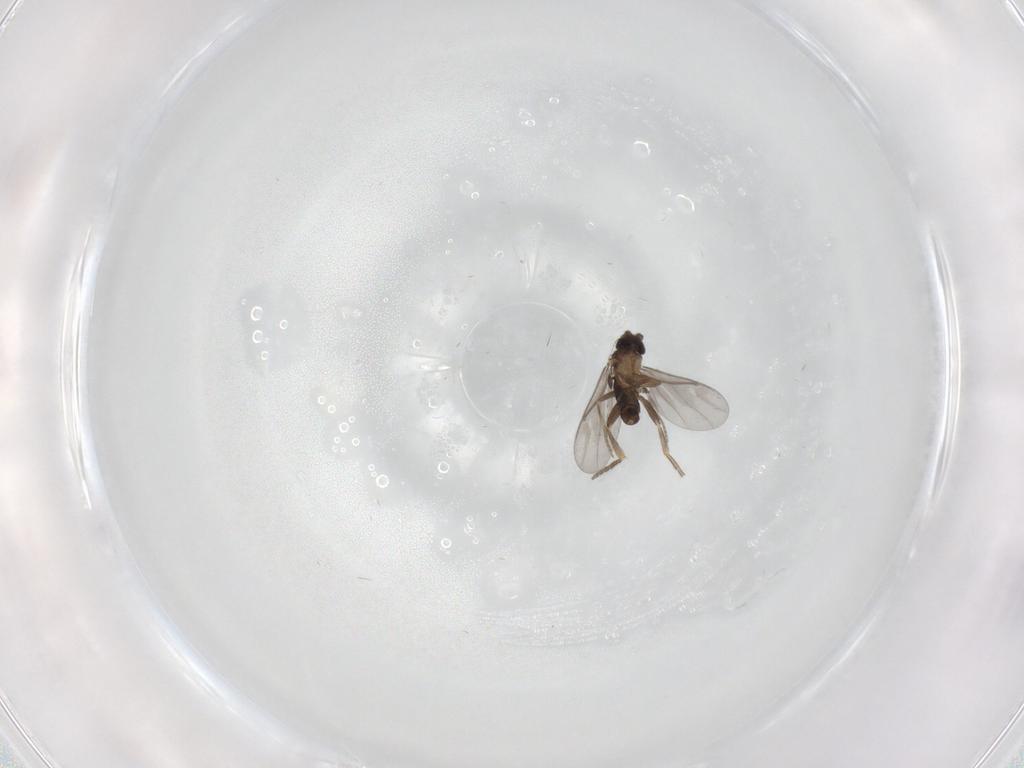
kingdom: Animalia
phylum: Arthropoda
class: Insecta
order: Diptera
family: Ceratopogonidae
